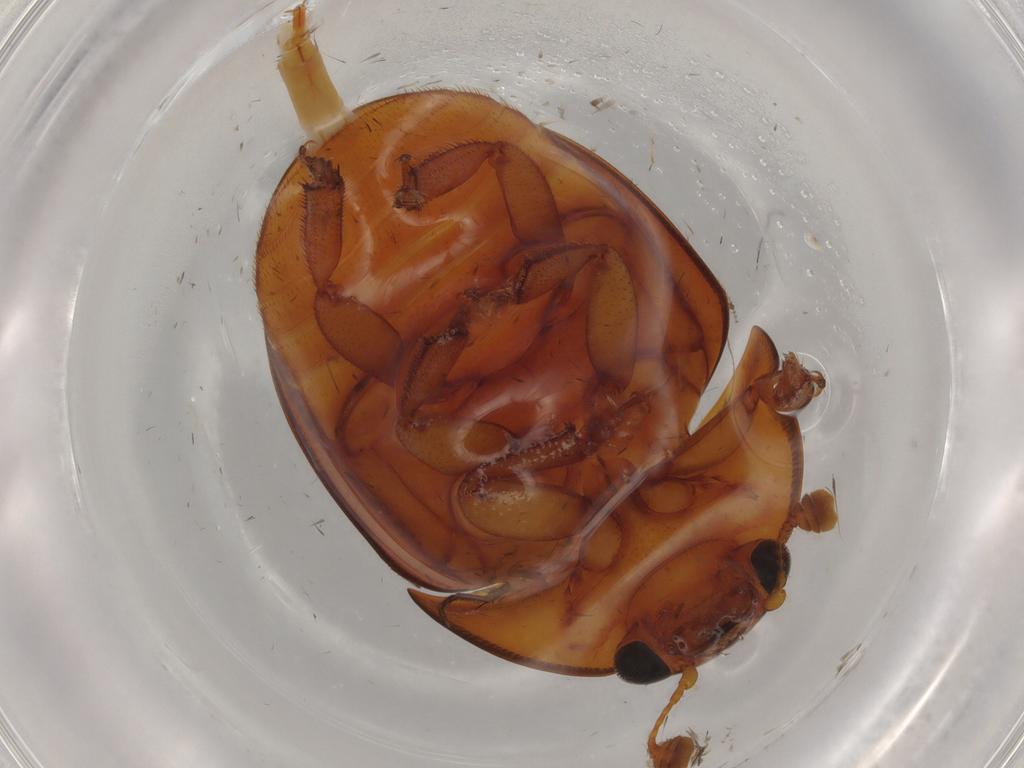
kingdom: Animalia
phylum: Arthropoda
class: Insecta
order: Coleoptera
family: Nitidulidae
